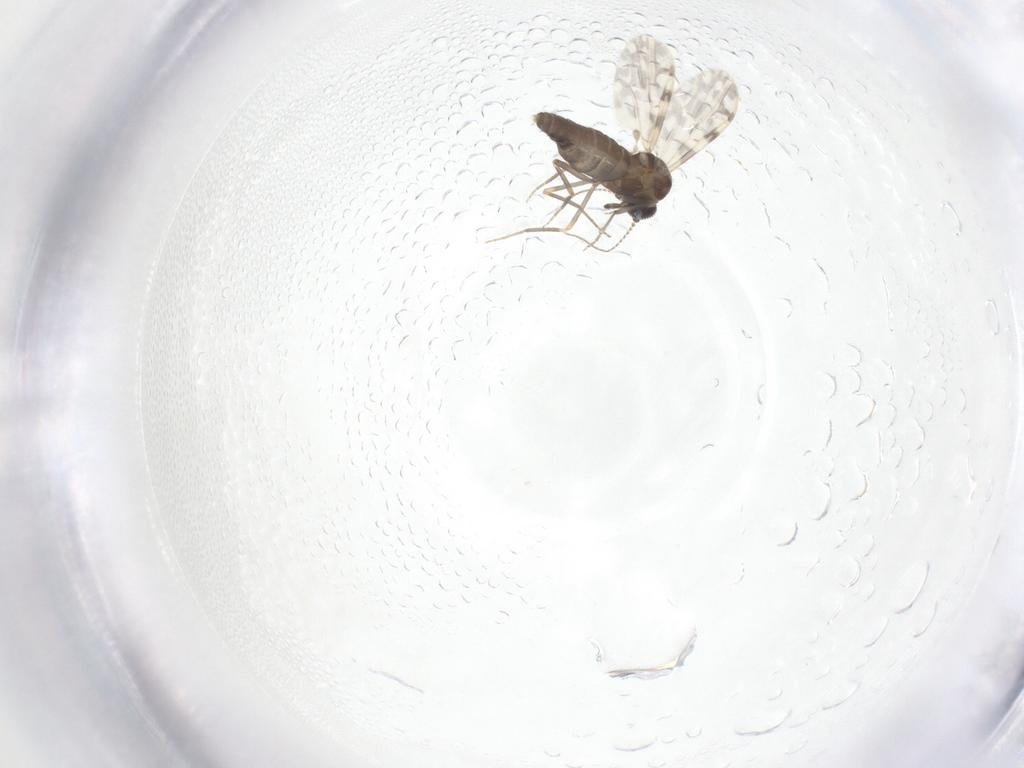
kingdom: Animalia
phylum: Arthropoda
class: Insecta
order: Diptera
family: Ceratopogonidae
